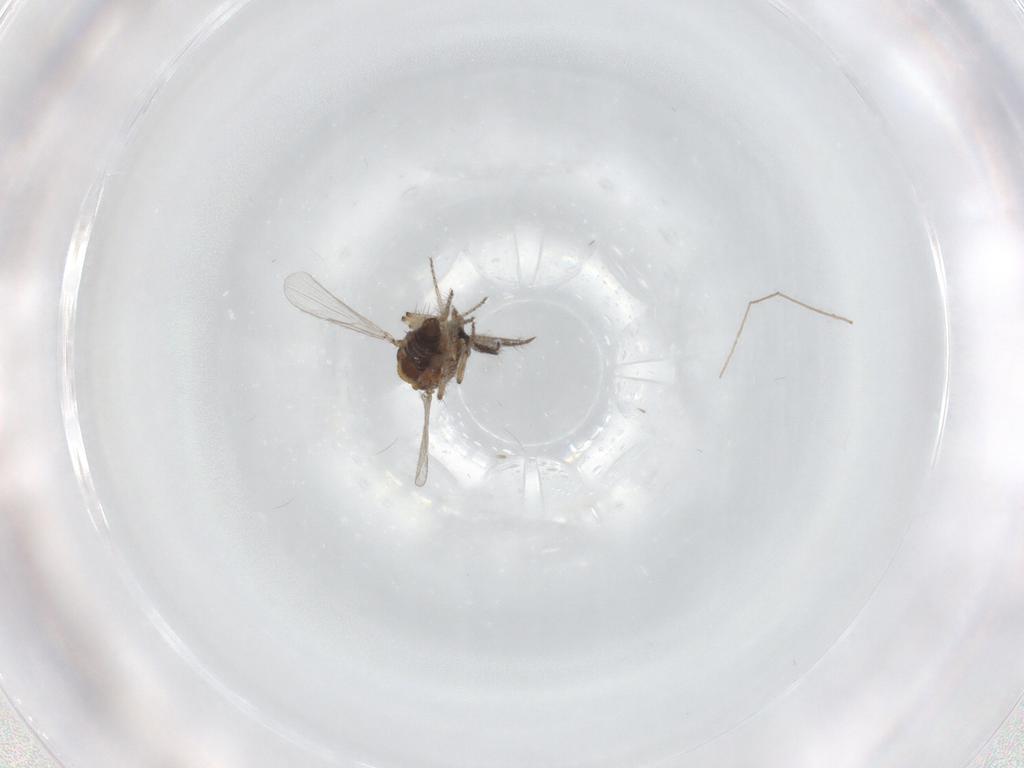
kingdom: Animalia
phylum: Arthropoda
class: Insecta
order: Diptera
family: Ceratopogonidae
